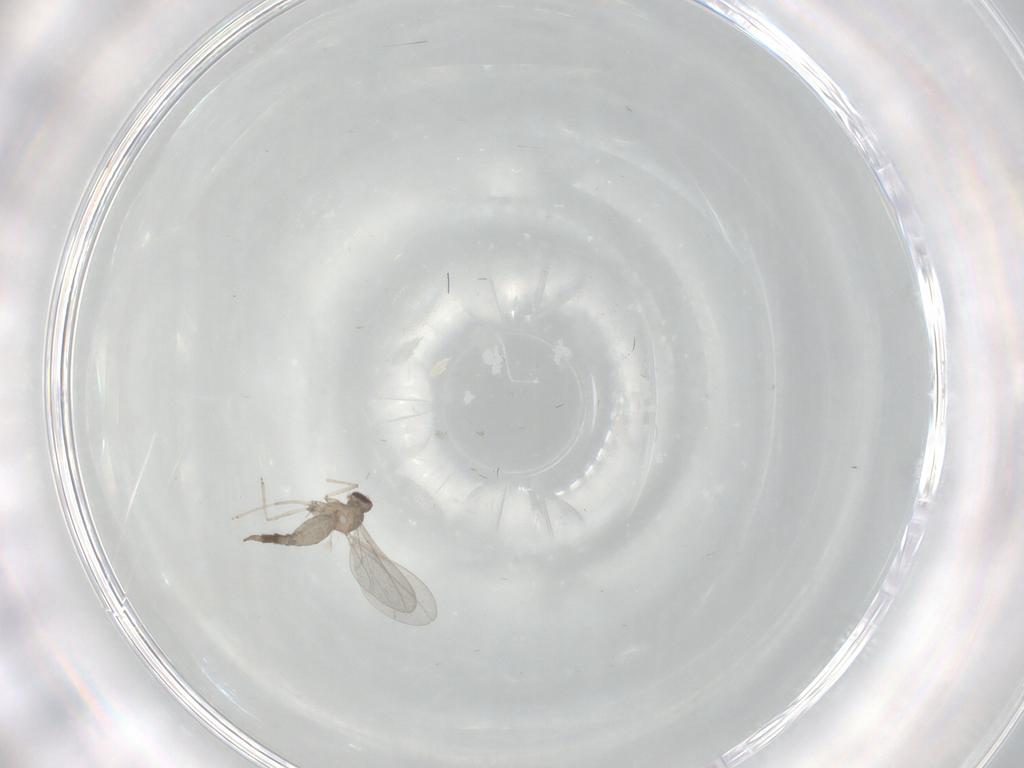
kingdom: Animalia
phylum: Arthropoda
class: Insecta
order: Diptera
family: Cecidomyiidae
